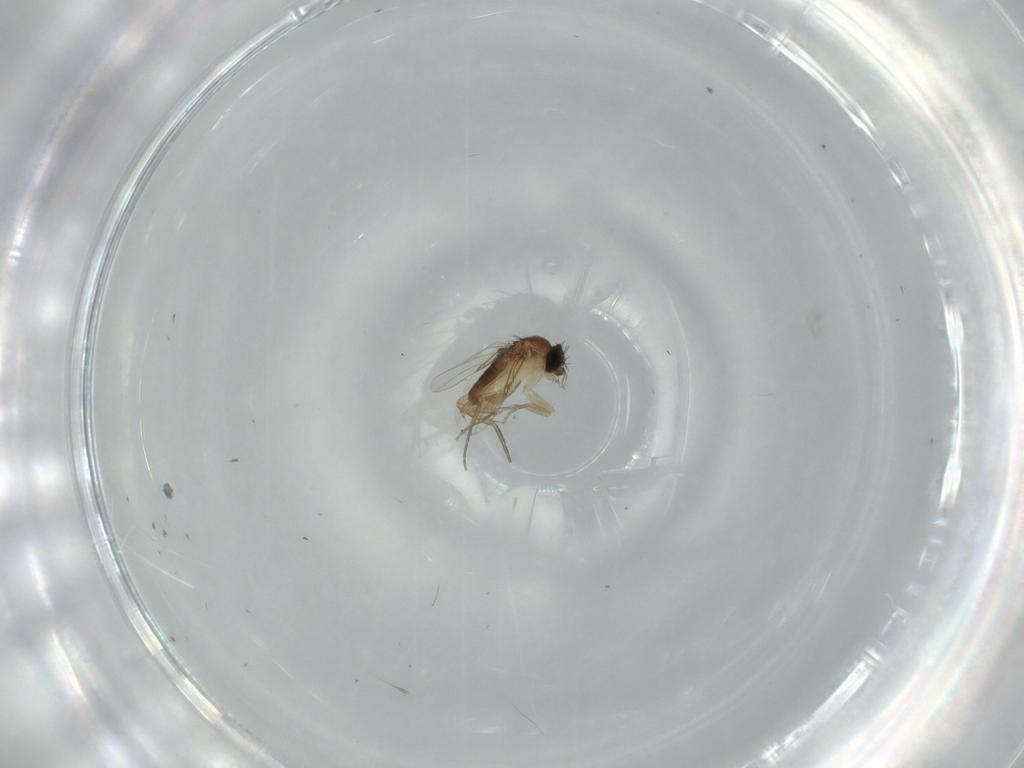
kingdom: Animalia
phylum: Arthropoda
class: Insecta
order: Diptera
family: Phoridae
